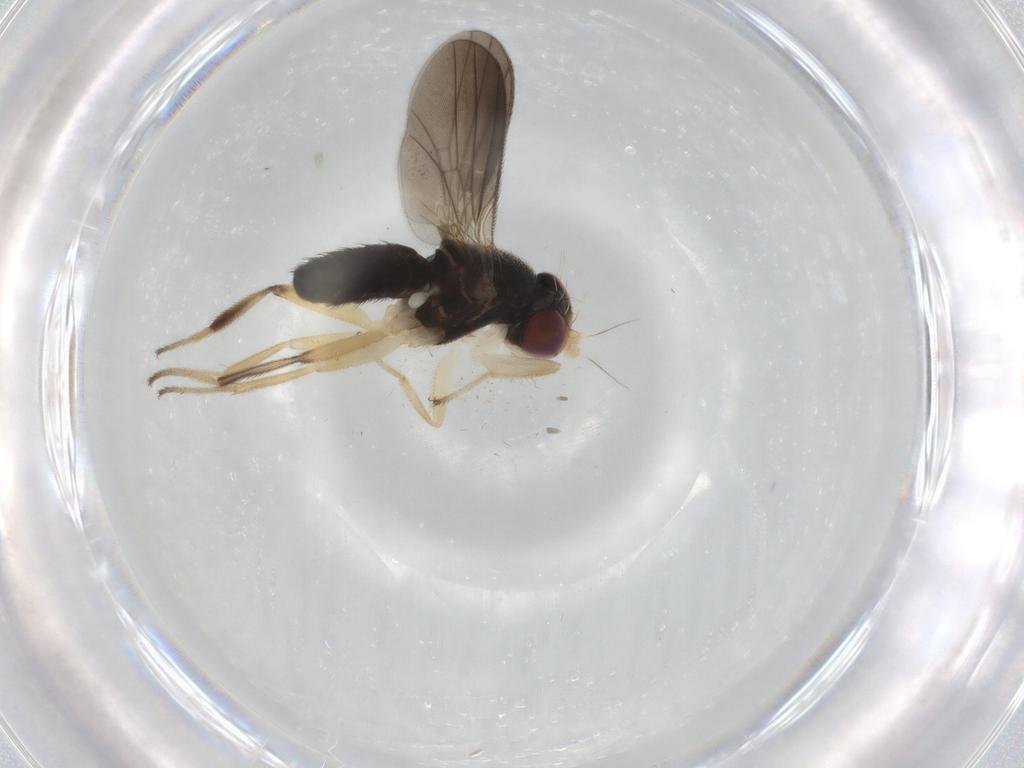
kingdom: Animalia
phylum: Arthropoda
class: Insecta
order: Diptera
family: Clusiidae
